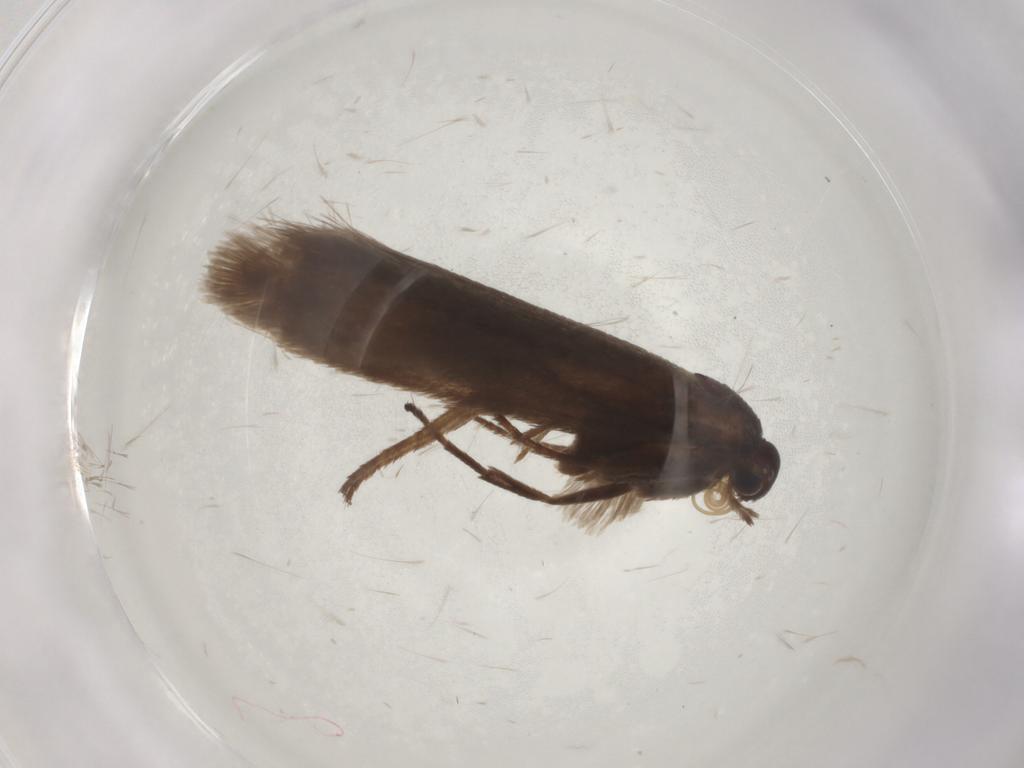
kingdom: Animalia
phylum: Arthropoda
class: Insecta
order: Lepidoptera
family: Limacodidae
